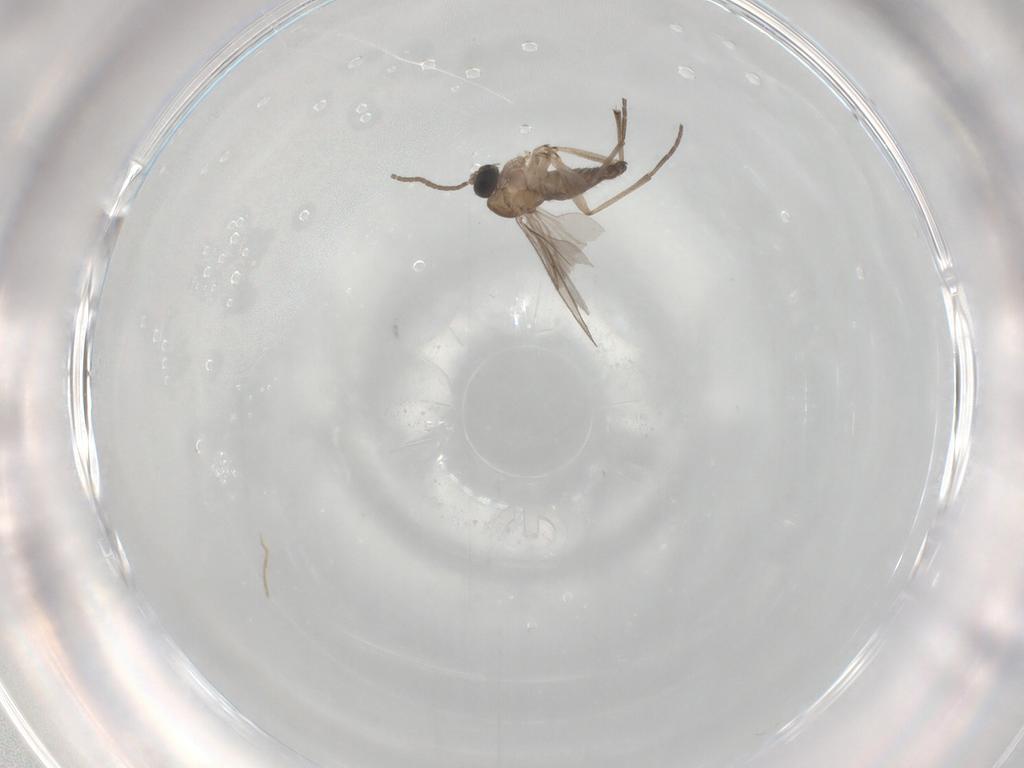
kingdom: Animalia
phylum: Arthropoda
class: Insecta
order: Diptera
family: Sciaridae
